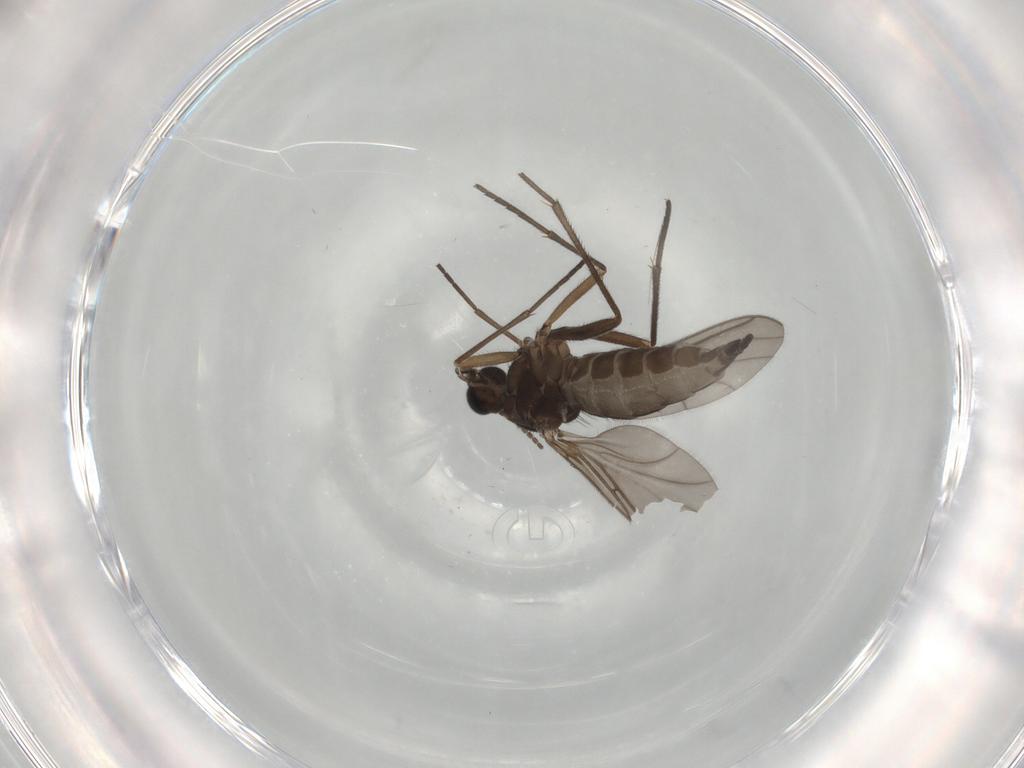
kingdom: Animalia
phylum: Arthropoda
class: Insecta
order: Diptera
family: Sciaridae
